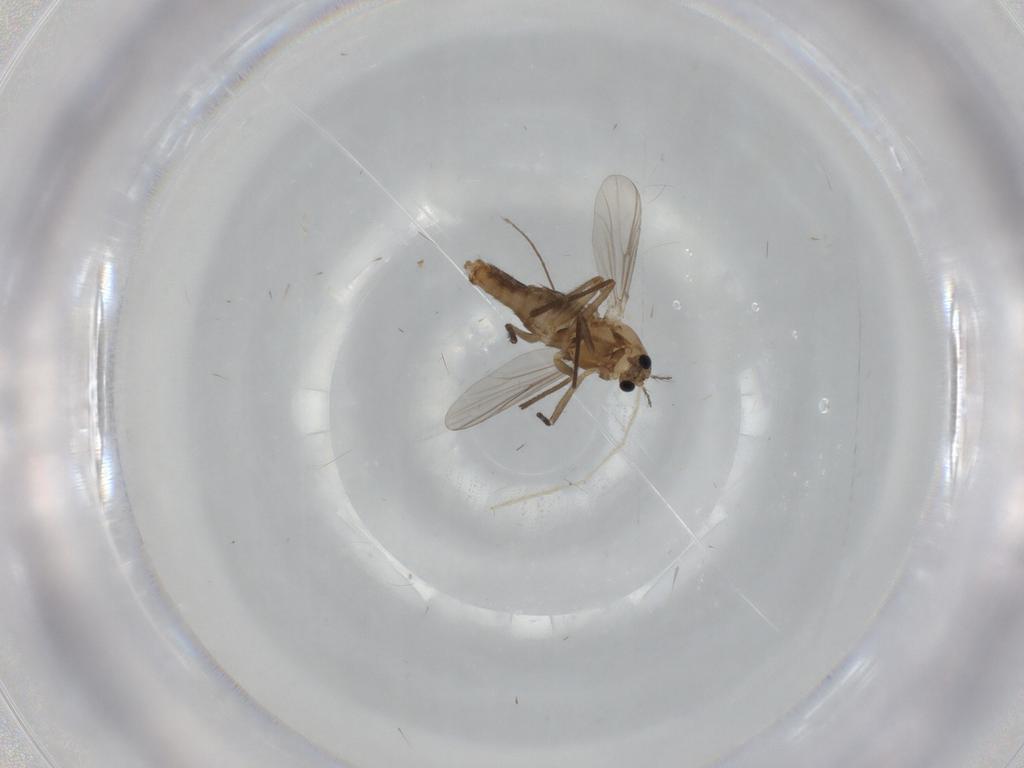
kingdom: Animalia
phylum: Arthropoda
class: Insecta
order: Diptera
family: Chironomidae
